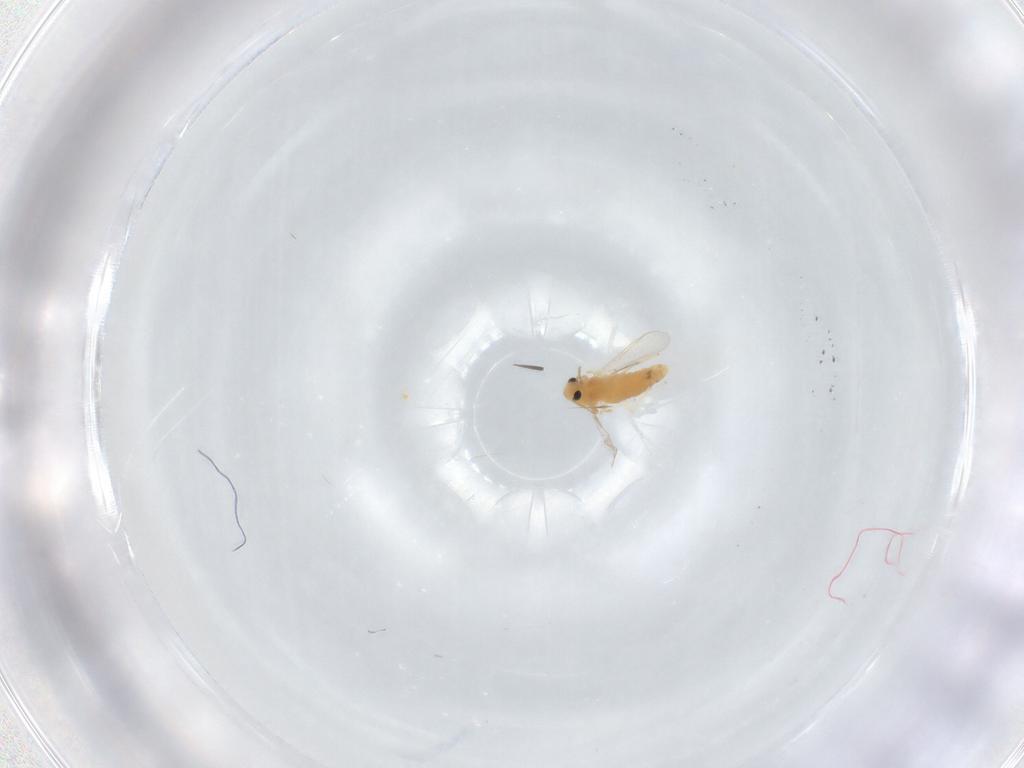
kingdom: Animalia
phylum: Arthropoda
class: Insecta
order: Diptera
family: Chironomidae
